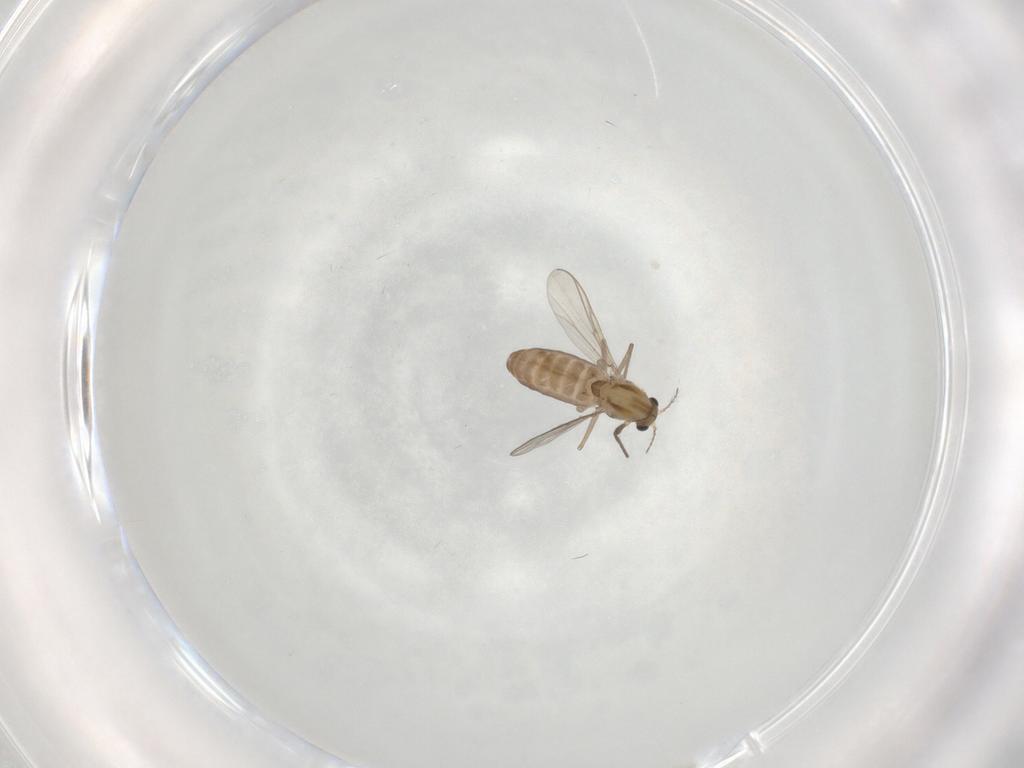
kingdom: Animalia
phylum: Arthropoda
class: Insecta
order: Diptera
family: Chironomidae
